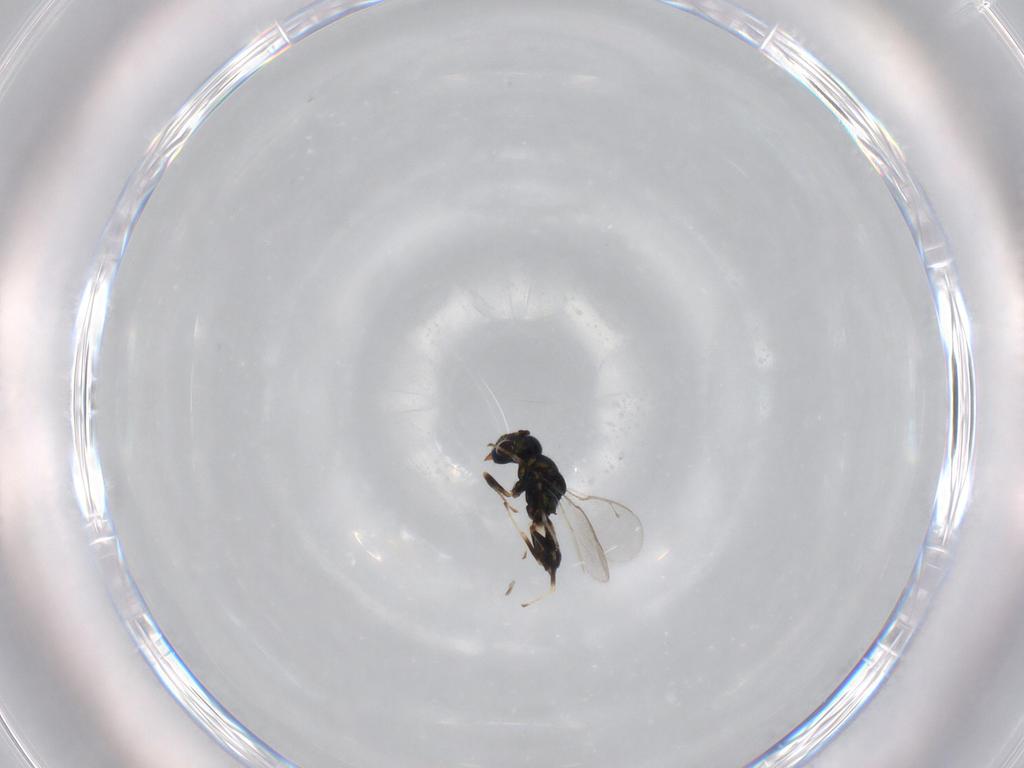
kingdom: Animalia
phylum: Arthropoda
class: Insecta
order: Hymenoptera
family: Pteromalidae
